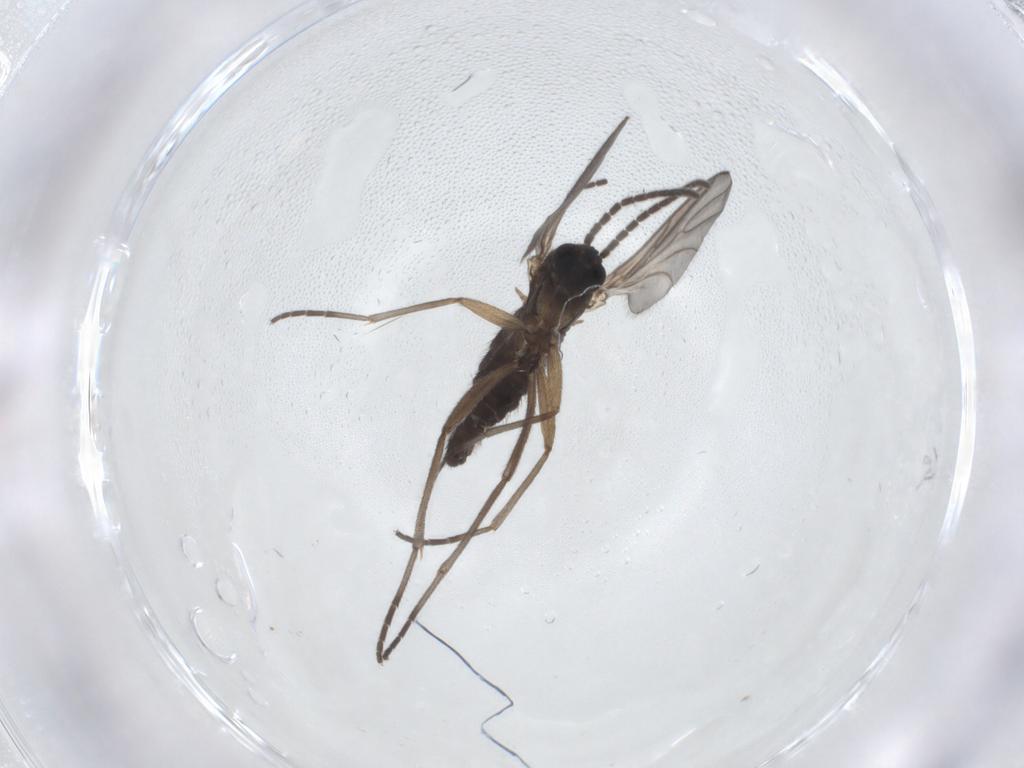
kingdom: Animalia
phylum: Arthropoda
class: Insecta
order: Diptera
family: Sciaridae
